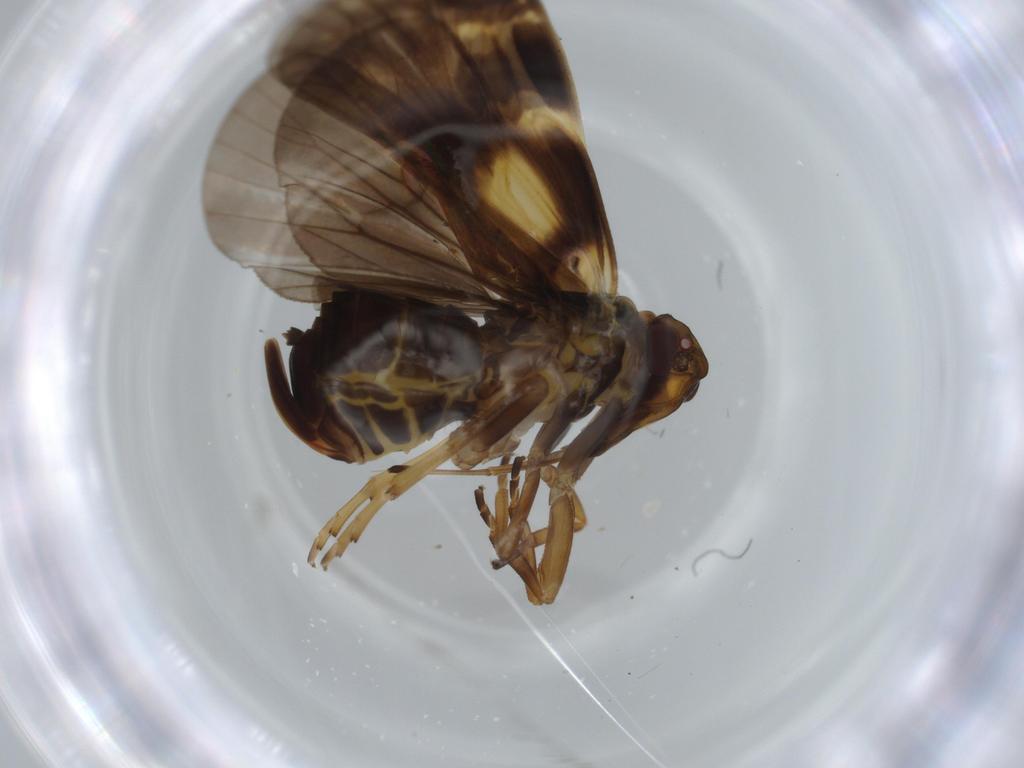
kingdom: Animalia
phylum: Arthropoda
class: Insecta
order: Hemiptera
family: Cixiidae
